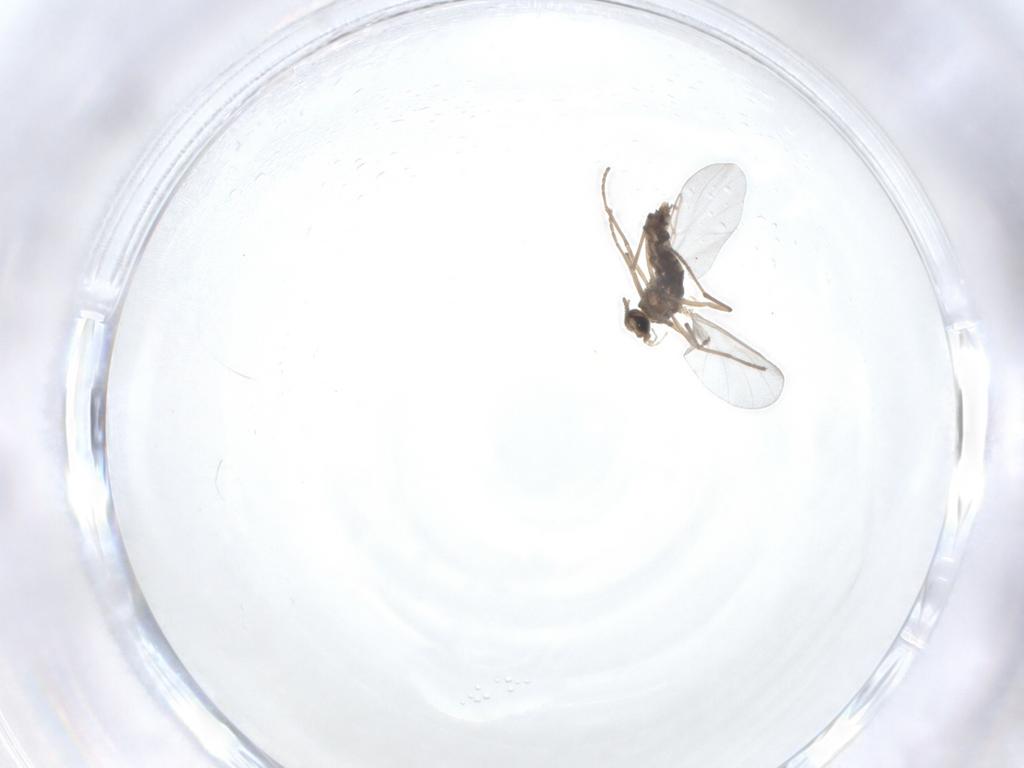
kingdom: Animalia
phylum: Arthropoda
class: Insecta
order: Diptera
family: Cecidomyiidae
